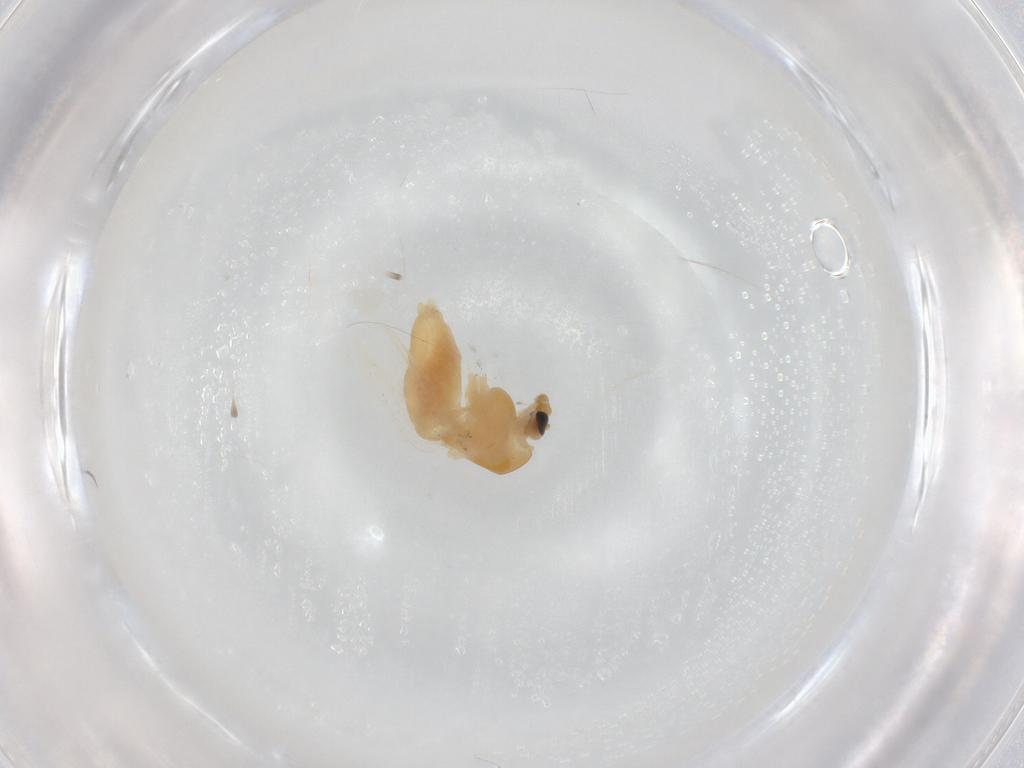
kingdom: Animalia
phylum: Arthropoda
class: Insecta
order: Diptera
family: Chironomidae
